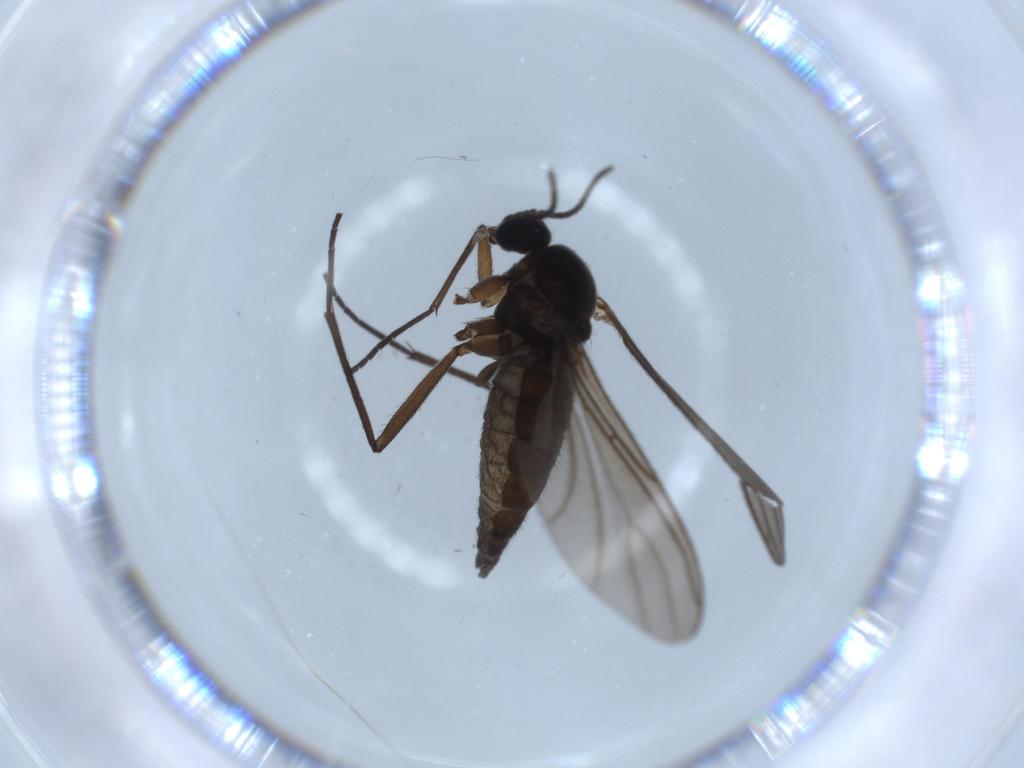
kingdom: Animalia
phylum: Arthropoda
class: Insecta
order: Diptera
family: Sciaridae
